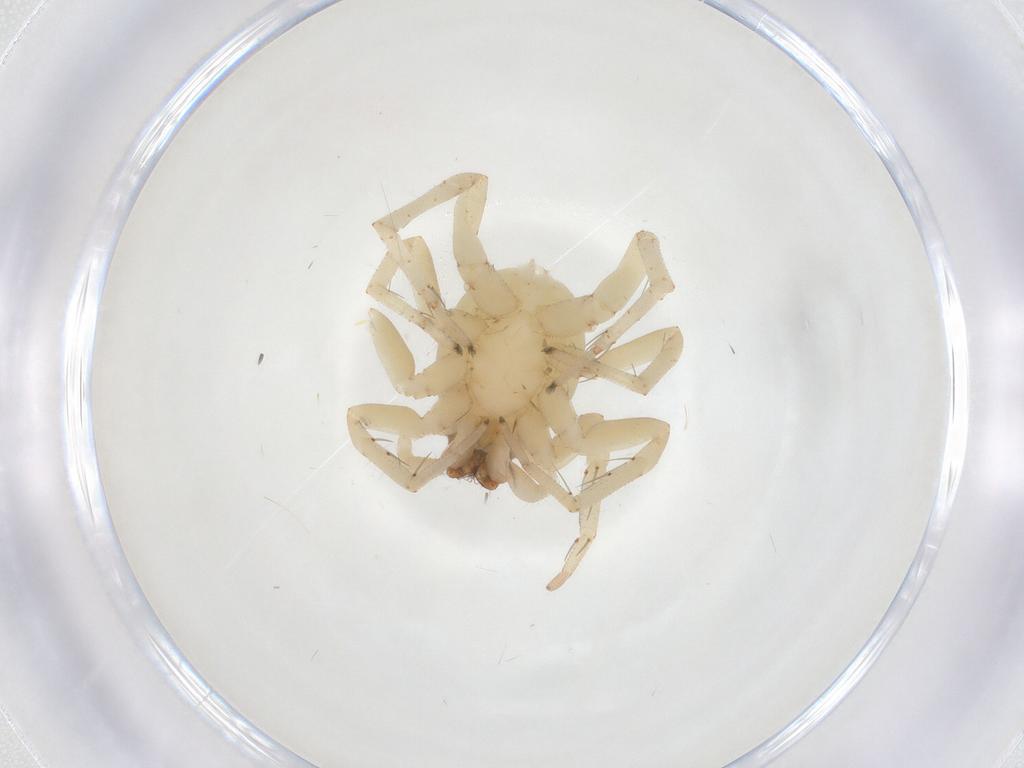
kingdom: Animalia
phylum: Arthropoda
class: Arachnida
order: Araneae
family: Clubionidae
